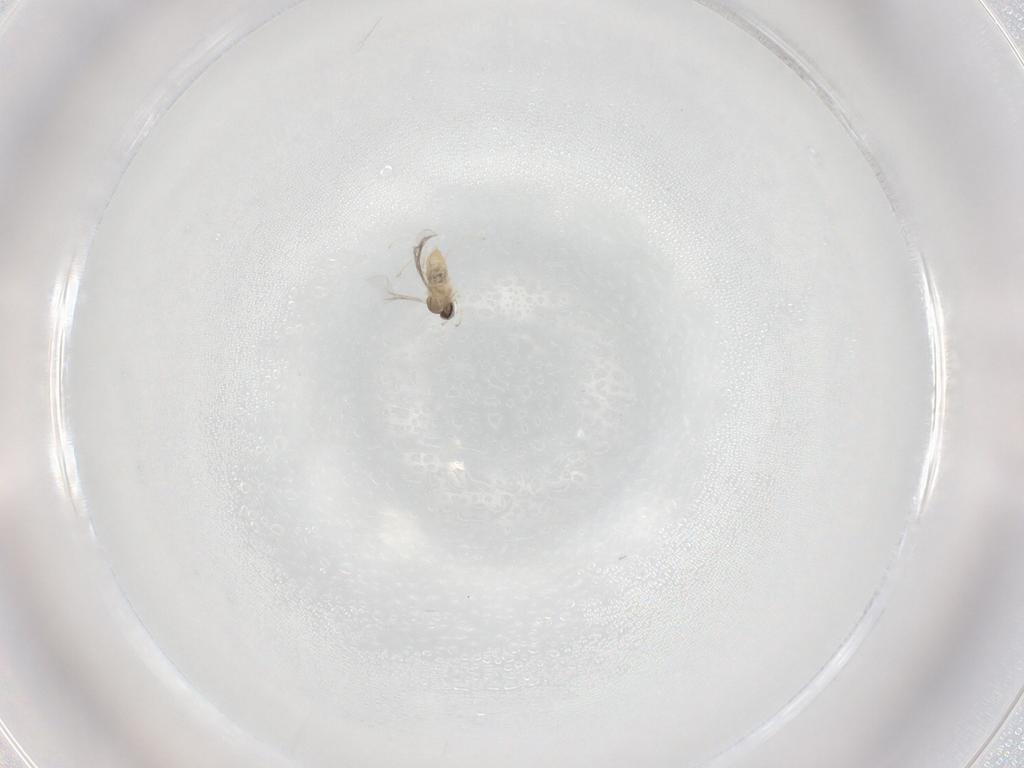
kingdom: Animalia
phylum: Arthropoda
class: Insecta
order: Diptera
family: Cecidomyiidae
